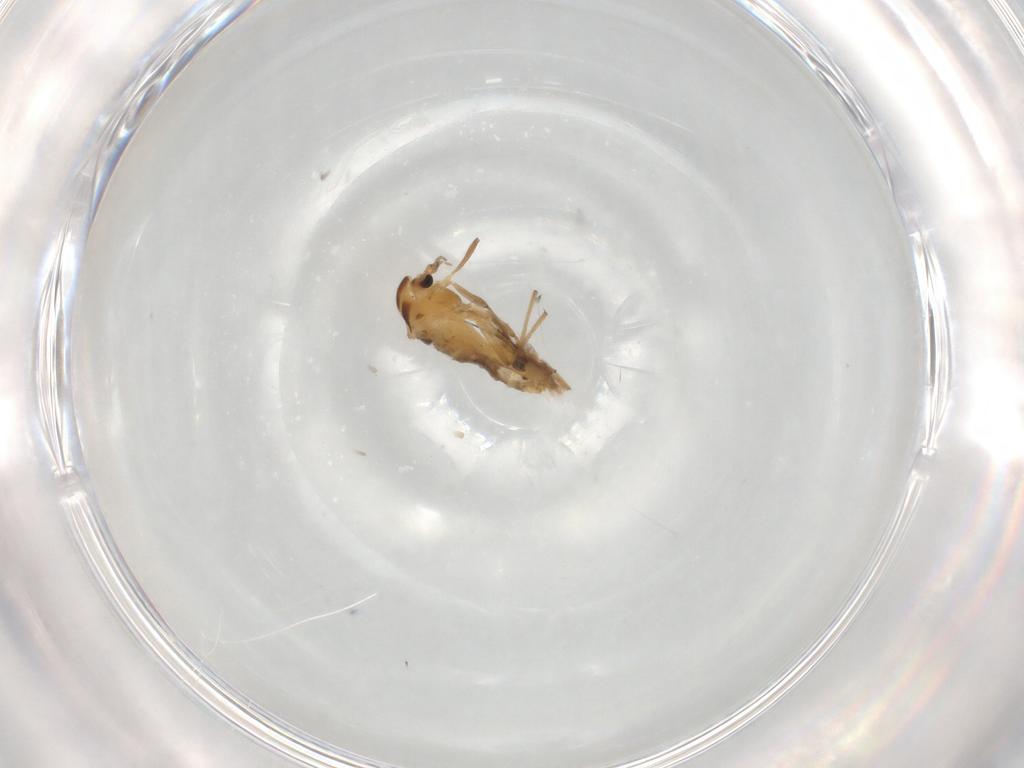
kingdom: Animalia
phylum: Arthropoda
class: Insecta
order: Diptera
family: Chironomidae
